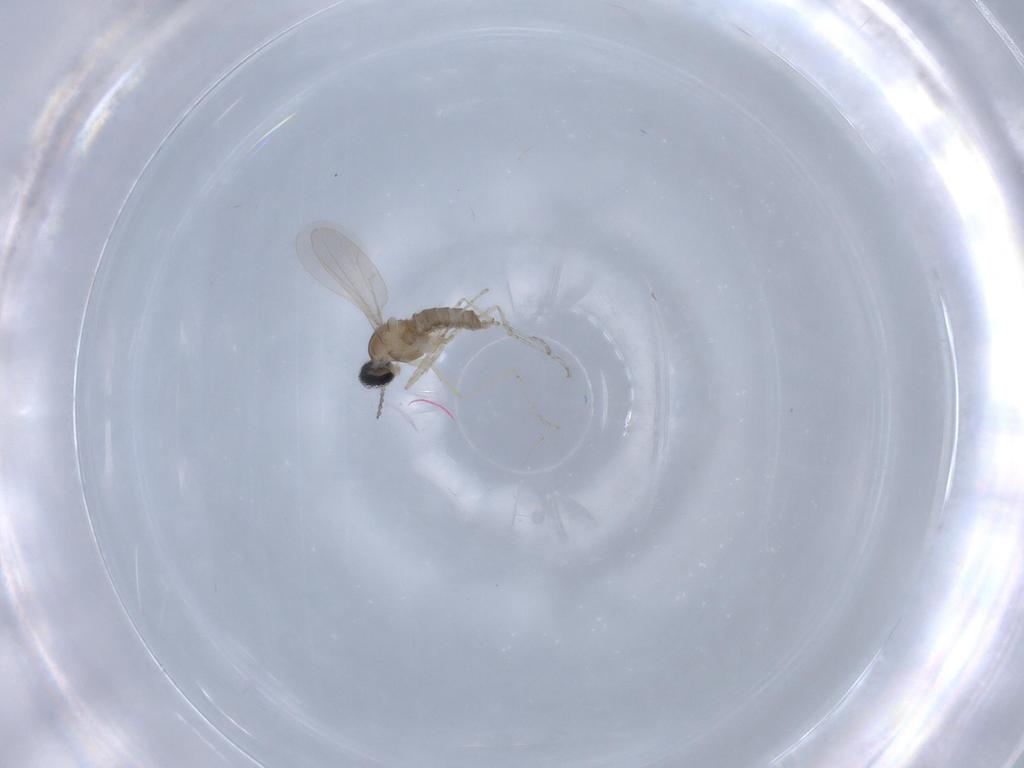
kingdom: Animalia
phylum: Arthropoda
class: Insecta
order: Diptera
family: Cecidomyiidae
